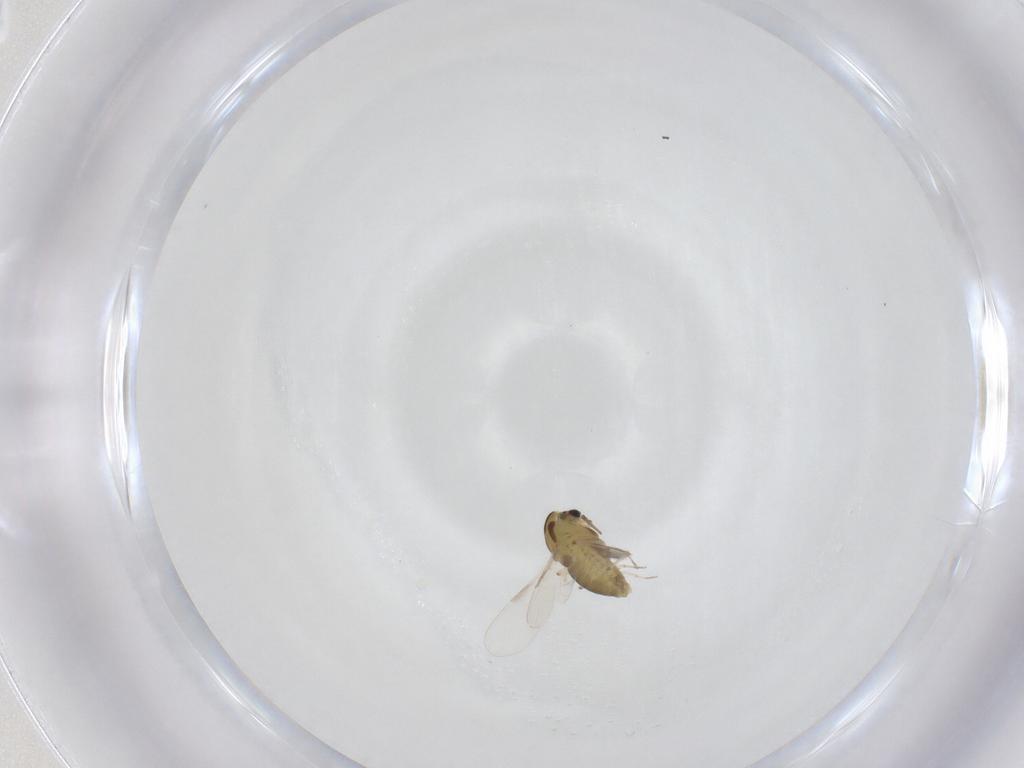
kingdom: Animalia
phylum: Arthropoda
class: Insecta
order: Diptera
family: Chironomidae
